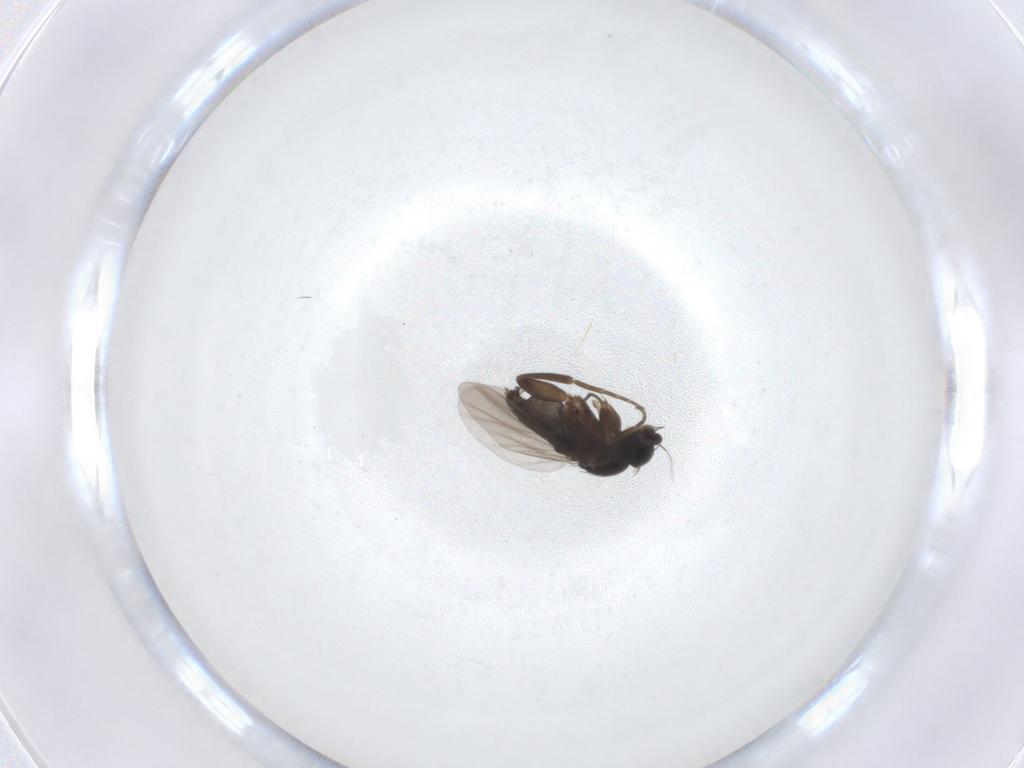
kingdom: Animalia
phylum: Arthropoda
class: Insecta
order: Diptera
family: Phoridae
